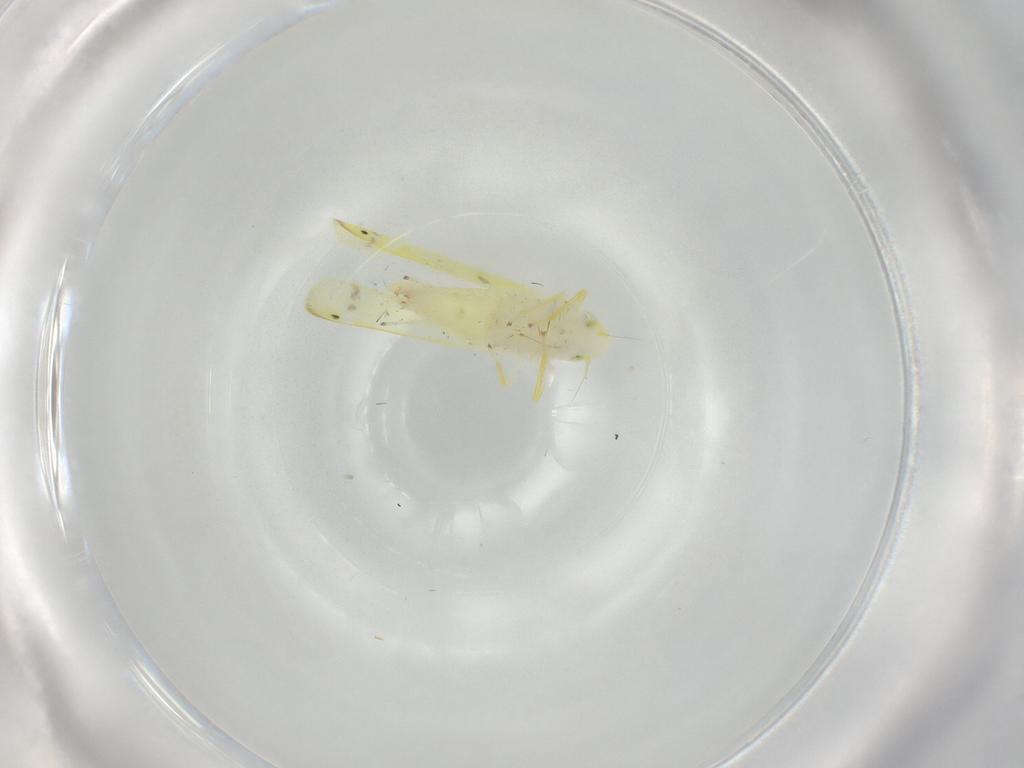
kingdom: Animalia
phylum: Arthropoda
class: Insecta
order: Hemiptera
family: Cicadellidae
